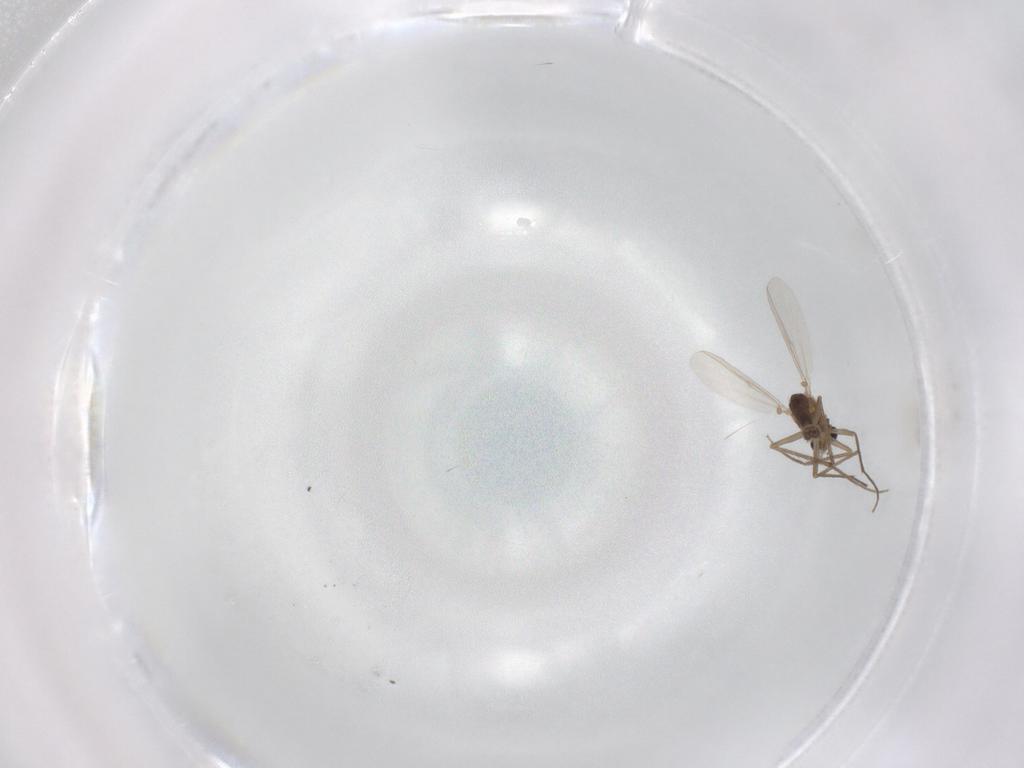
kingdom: Animalia
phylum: Arthropoda
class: Insecta
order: Diptera
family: Chironomidae
